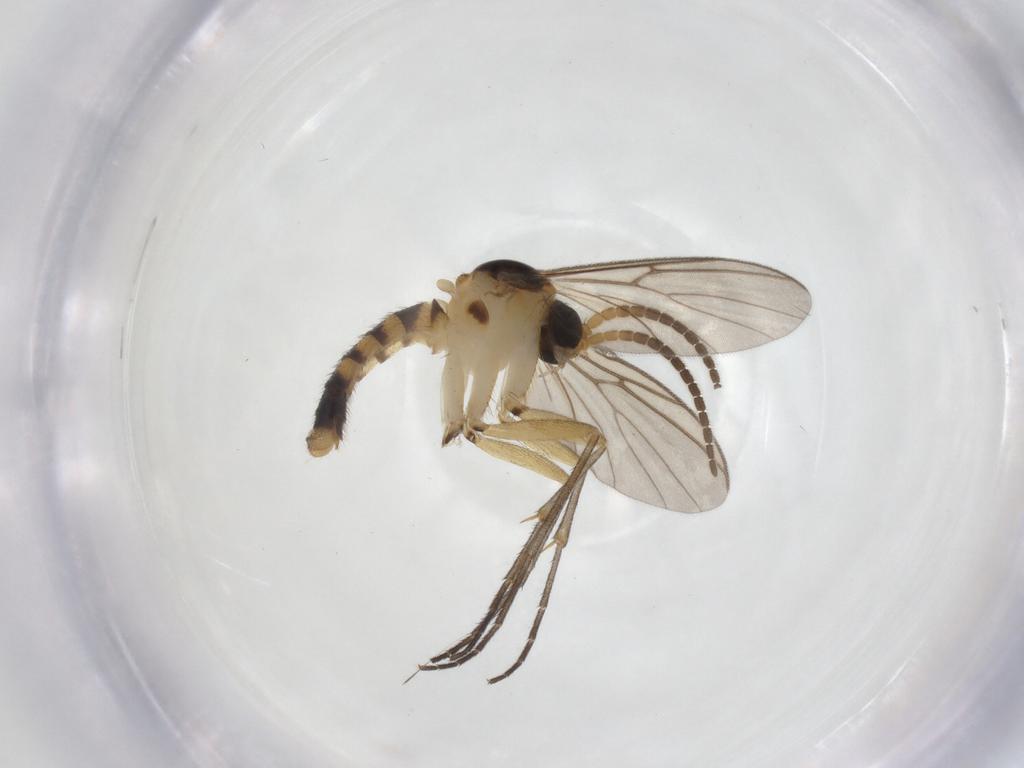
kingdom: Animalia
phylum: Arthropoda
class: Insecta
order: Diptera
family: Mycetophilidae
